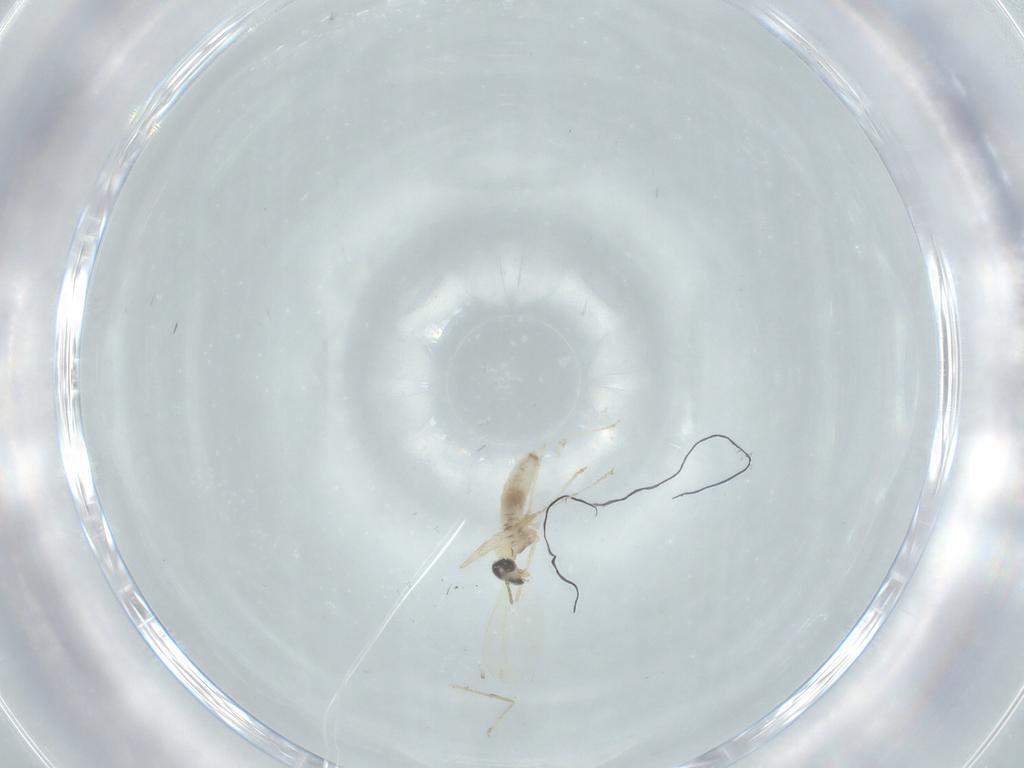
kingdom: Animalia
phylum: Arthropoda
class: Insecta
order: Diptera
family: Cecidomyiidae
